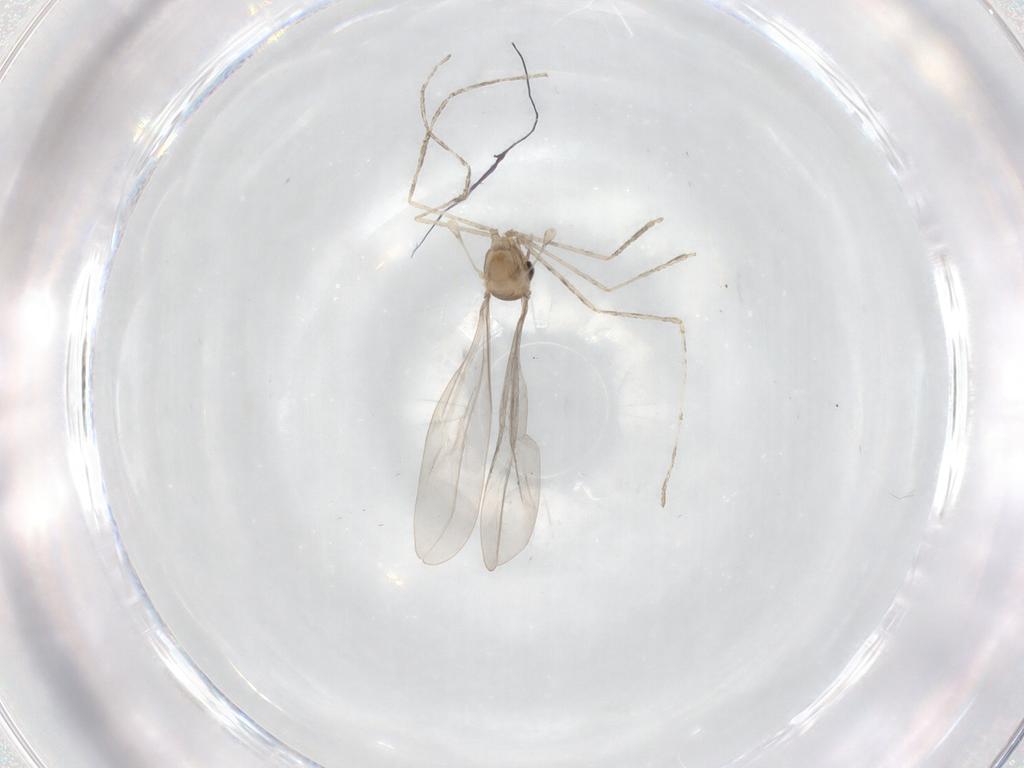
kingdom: Animalia
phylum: Arthropoda
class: Insecta
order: Diptera
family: Cecidomyiidae
